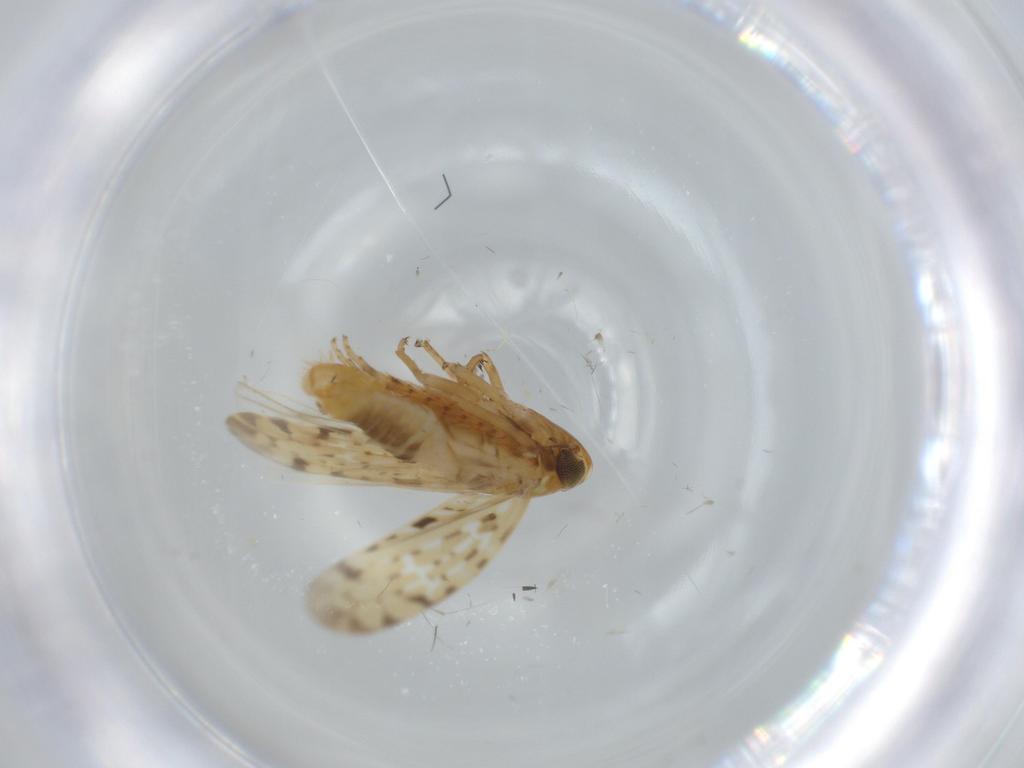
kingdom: Animalia
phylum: Arthropoda
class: Insecta
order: Hemiptera
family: Cicadellidae
